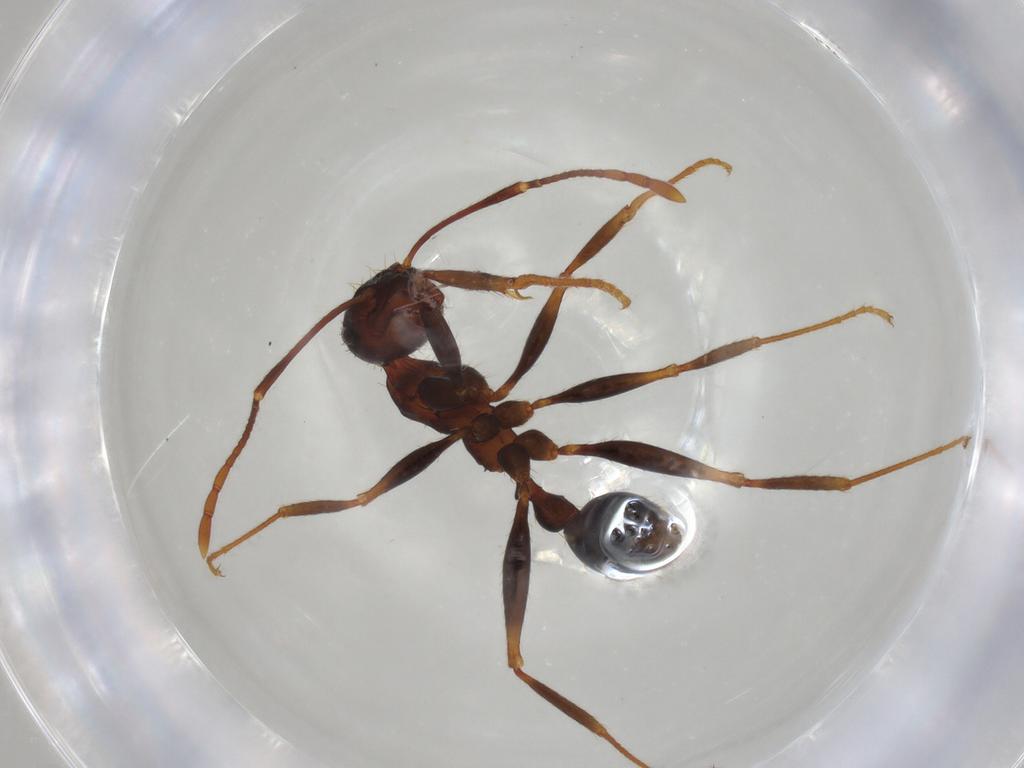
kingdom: Animalia
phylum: Arthropoda
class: Insecta
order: Hymenoptera
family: Formicidae
